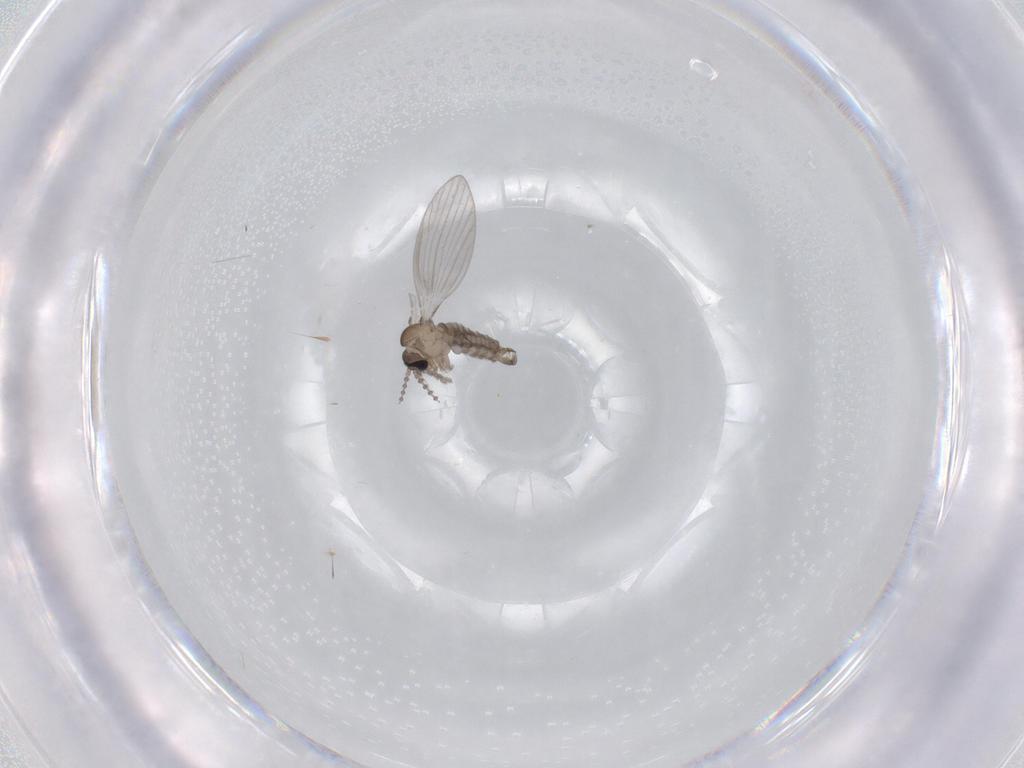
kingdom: Animalia
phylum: Arthropoda
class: Insecta
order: Diptera
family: Psychodidae
